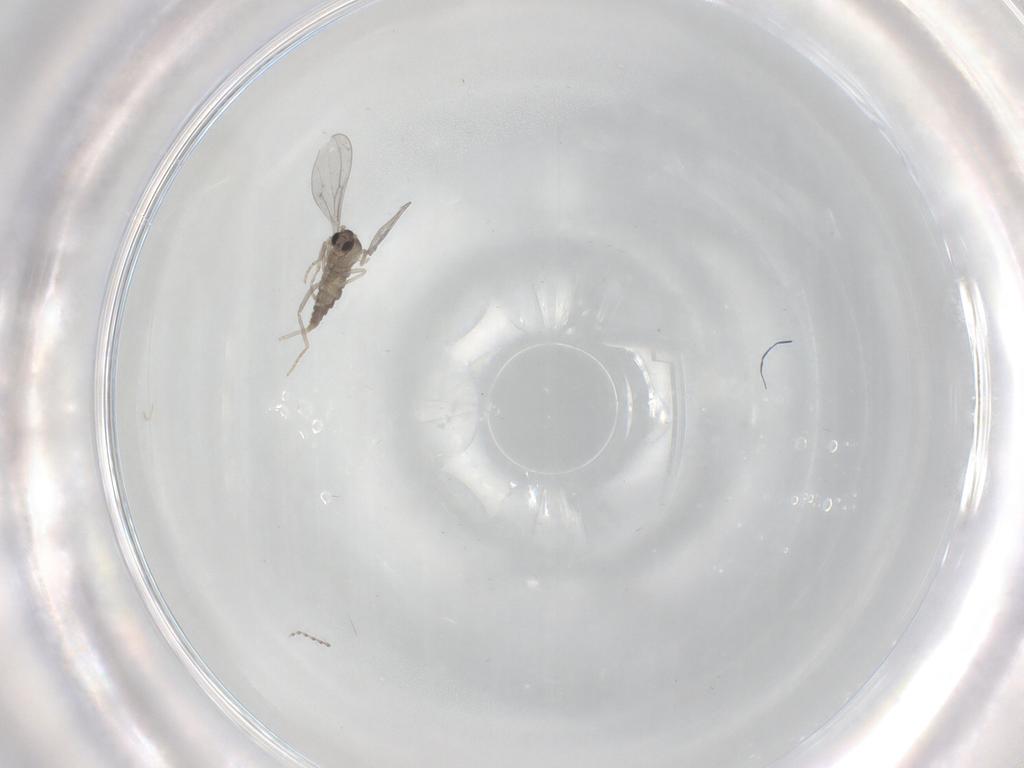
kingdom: Animalia
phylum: Arthropoda
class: Insecta
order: Diptera
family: Cecidomyiidae
